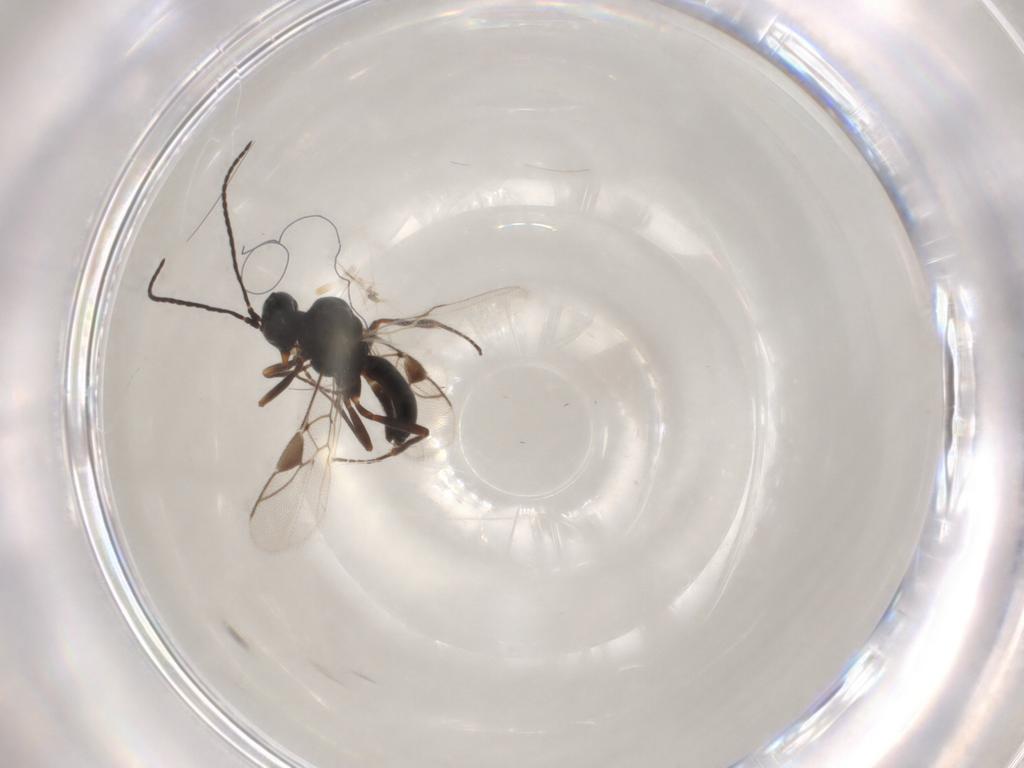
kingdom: Animalia
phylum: Arthropoda
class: Insecta
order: Hymenoptera
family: Braconidae
